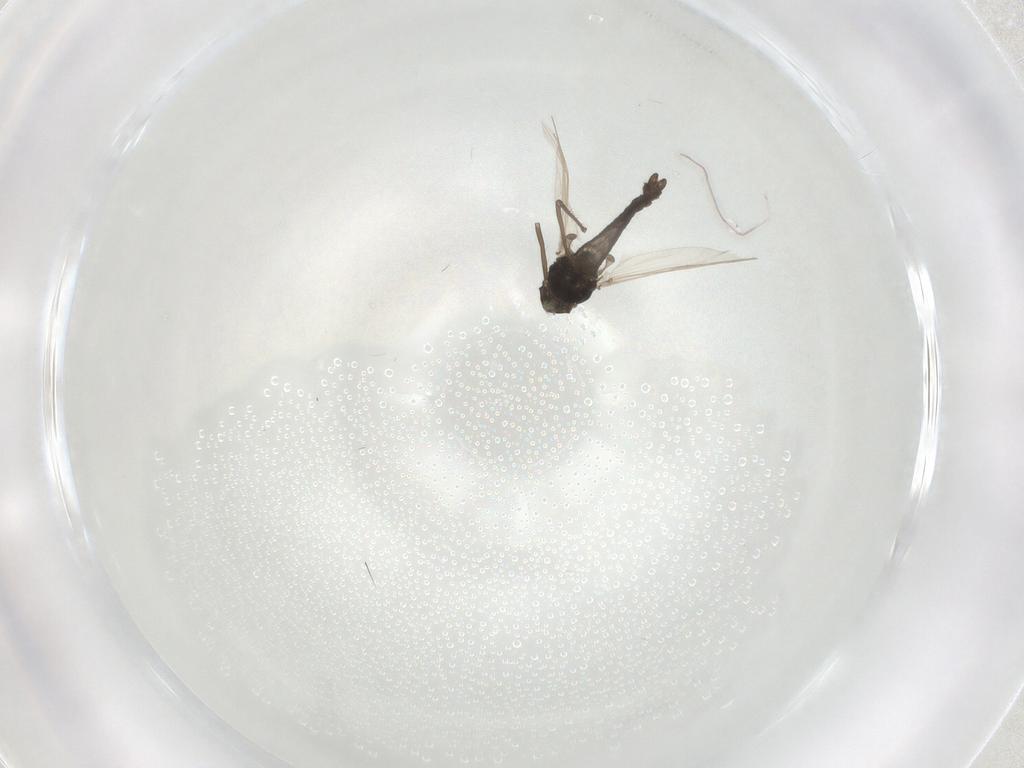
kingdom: Animalia
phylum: Arthropoda
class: Insecta
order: Diptera
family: Chironomidae
